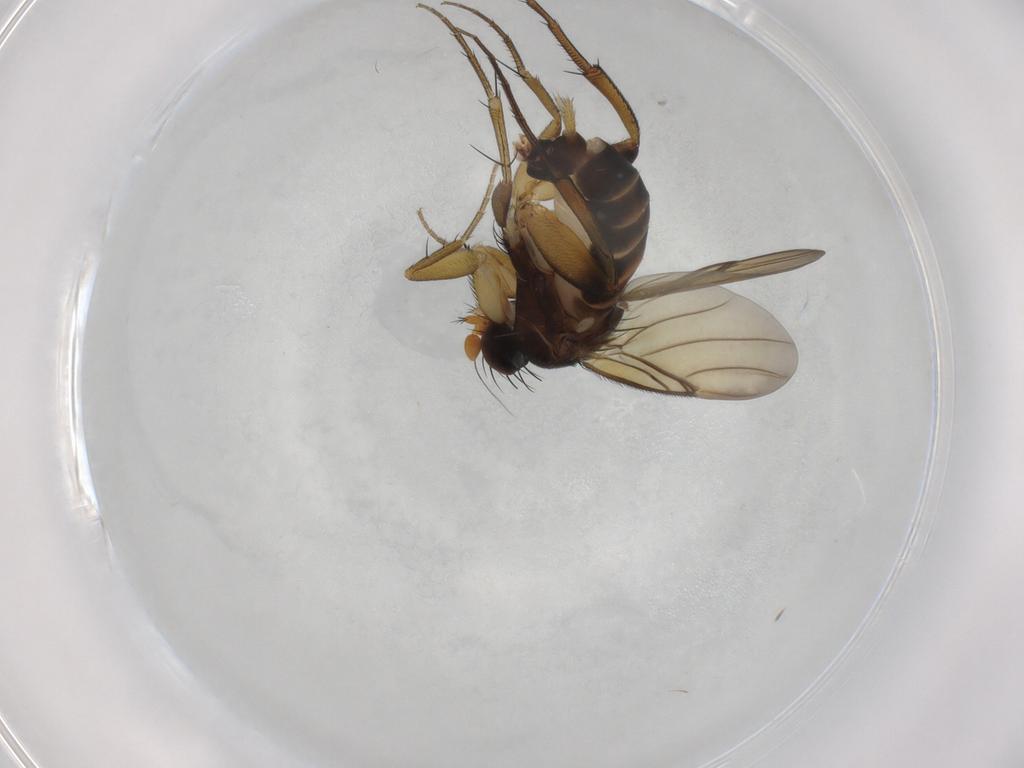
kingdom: Animalia
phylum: Arthropoda
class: Insecta
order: Diptera
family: Phoridae
